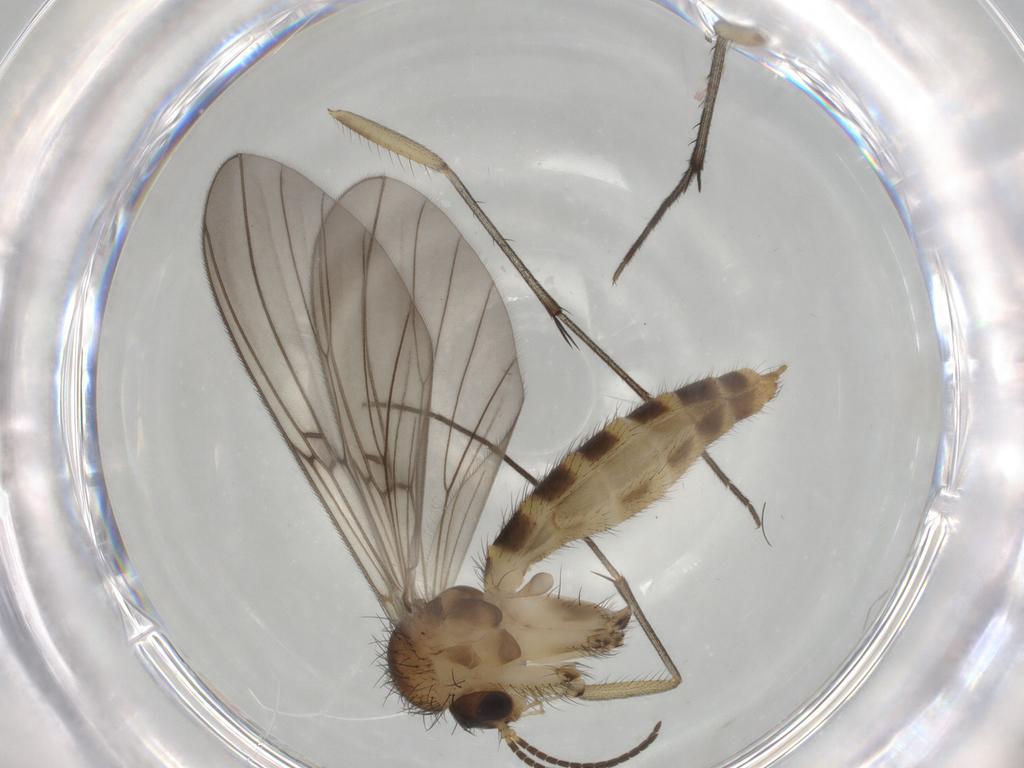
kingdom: Animalia
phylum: Arthropoda
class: Insecta
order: Diptera
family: Mycetophilidae
